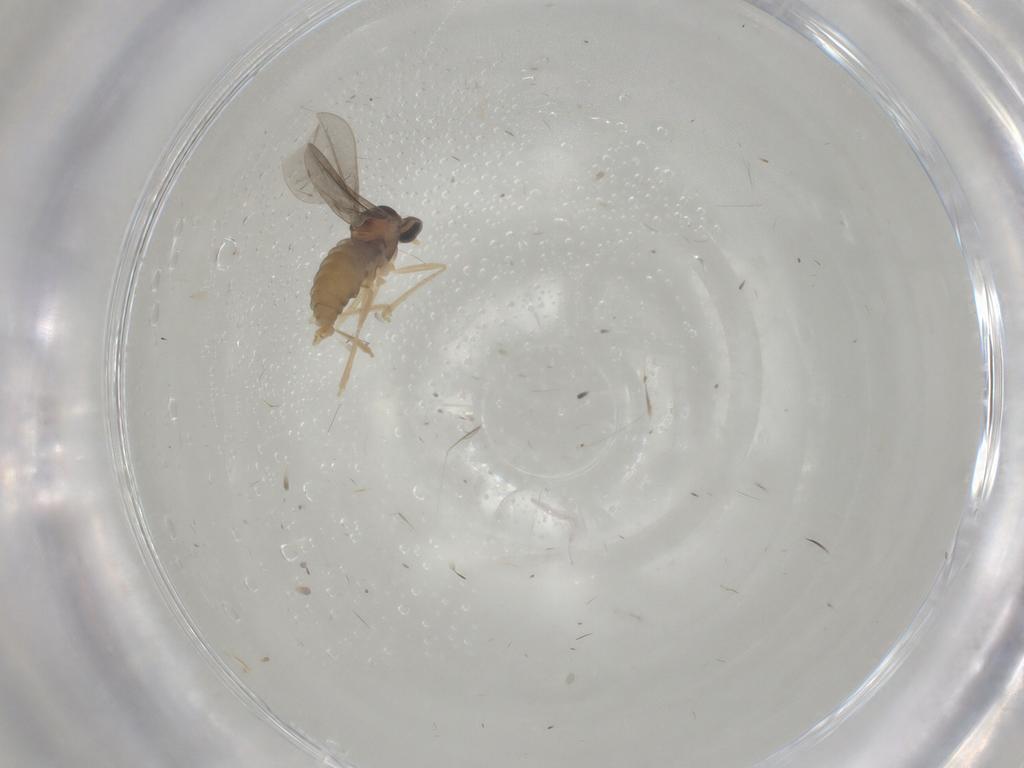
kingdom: Animalia
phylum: Arthropoda
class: Insecta
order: Diptera
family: Cecidomyiidae
